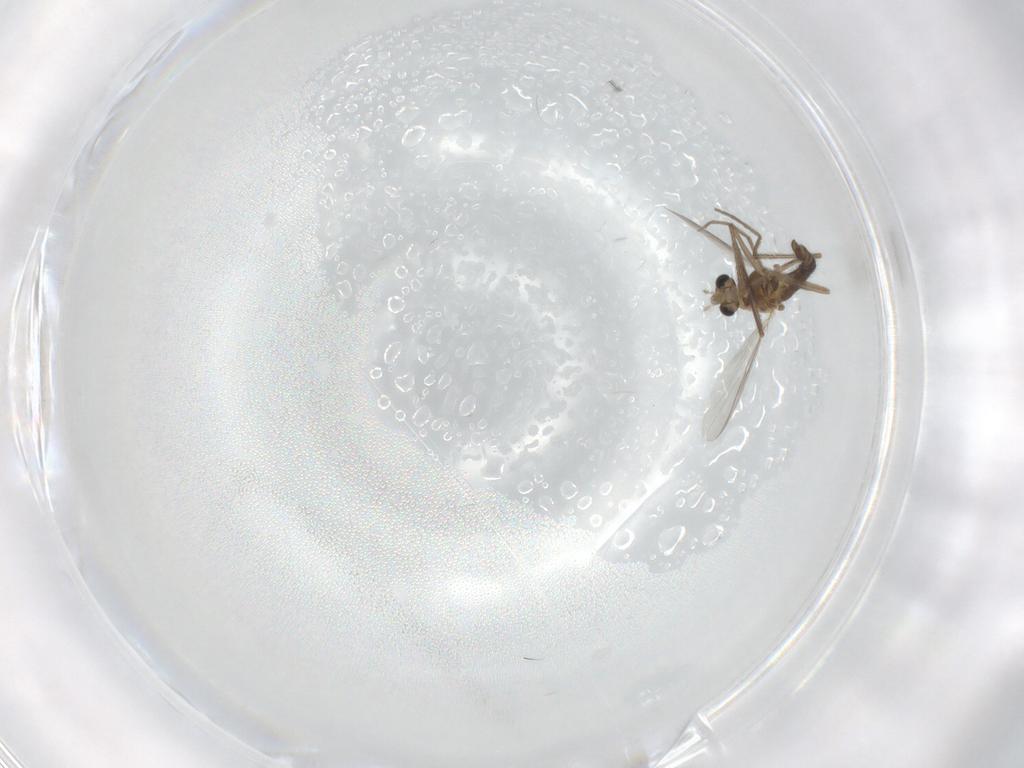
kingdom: Animalia
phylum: Arthropoda
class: Insecta
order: Diptera
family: Chironomidae
